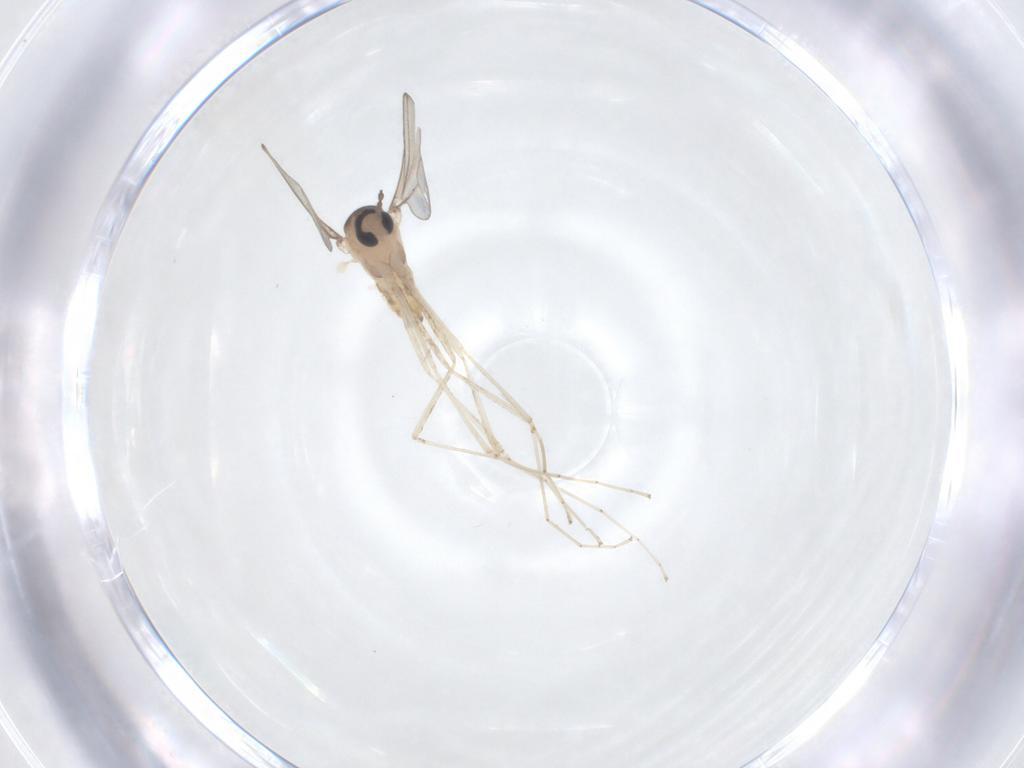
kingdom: Animalia
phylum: Arthropoda
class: Insecta
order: Diptera
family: Cecidomyiidae
